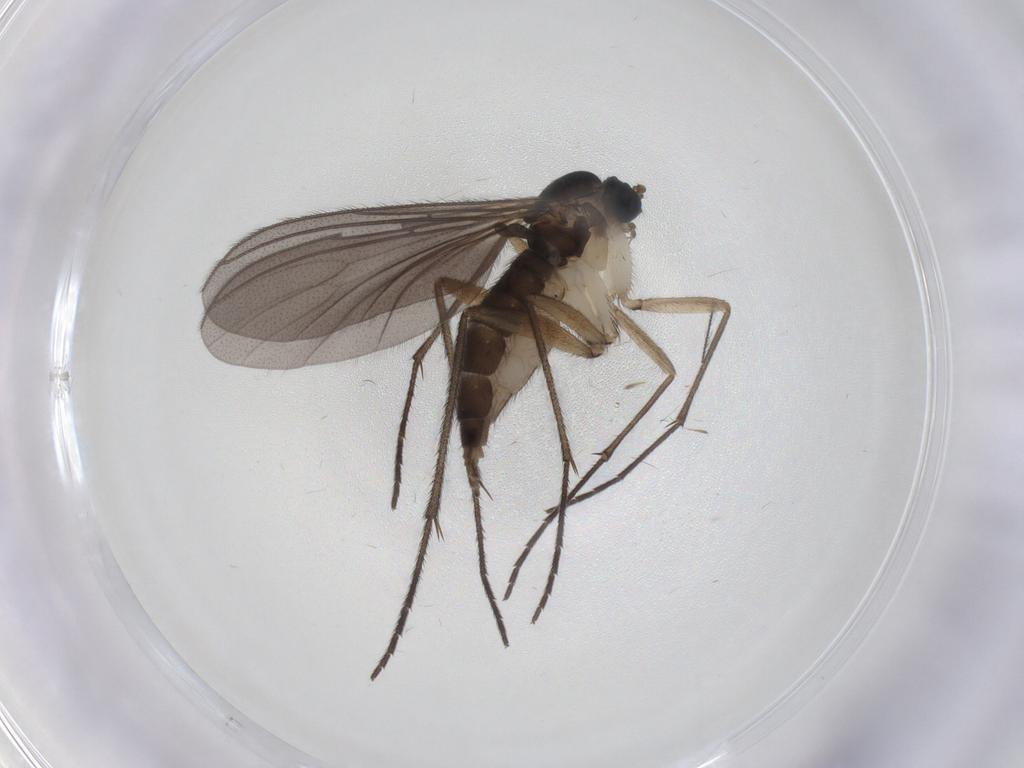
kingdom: Animalia
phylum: Arthropoda
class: Insecta
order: Diptera
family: Sciaridae
